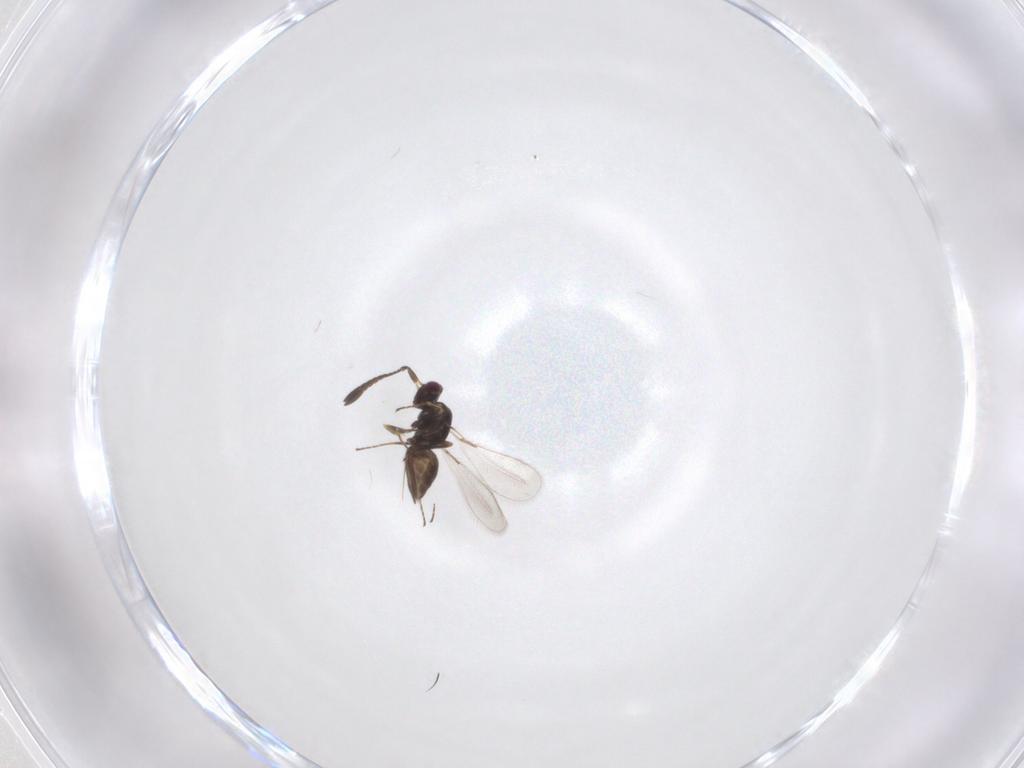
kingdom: Animalia
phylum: Arthropoda
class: Insecta
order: Hymenoptera
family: Mymaridae
